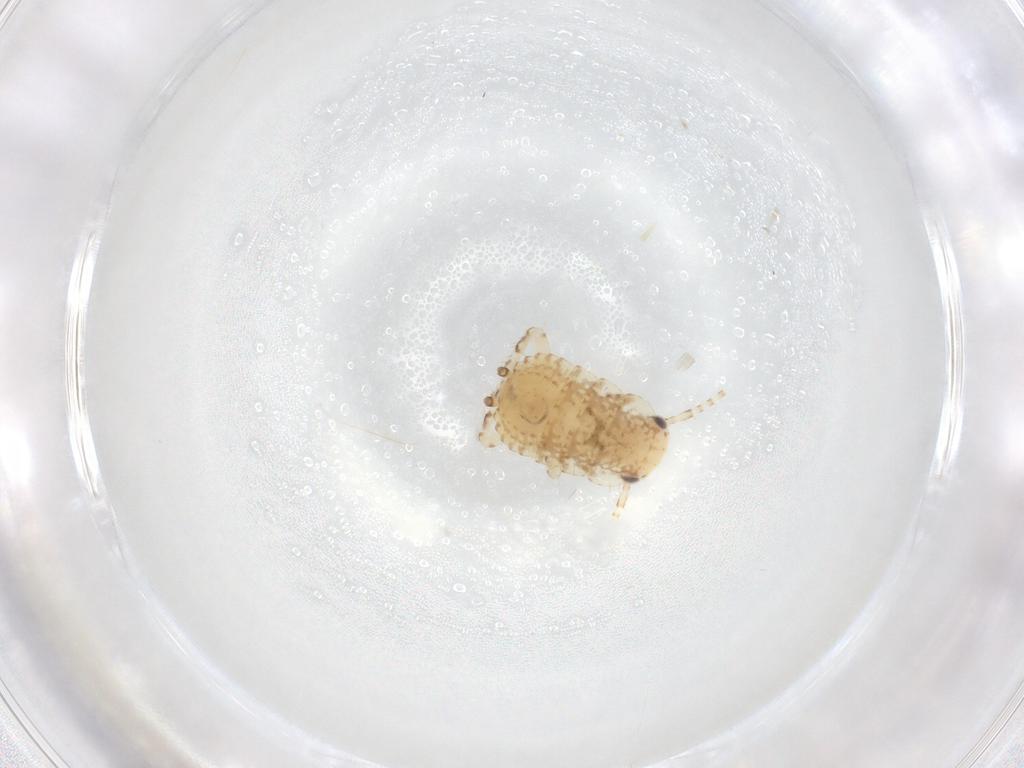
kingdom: Animalia
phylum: Arthropoda
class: Insecta
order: Blattodea
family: Ectobiidae
